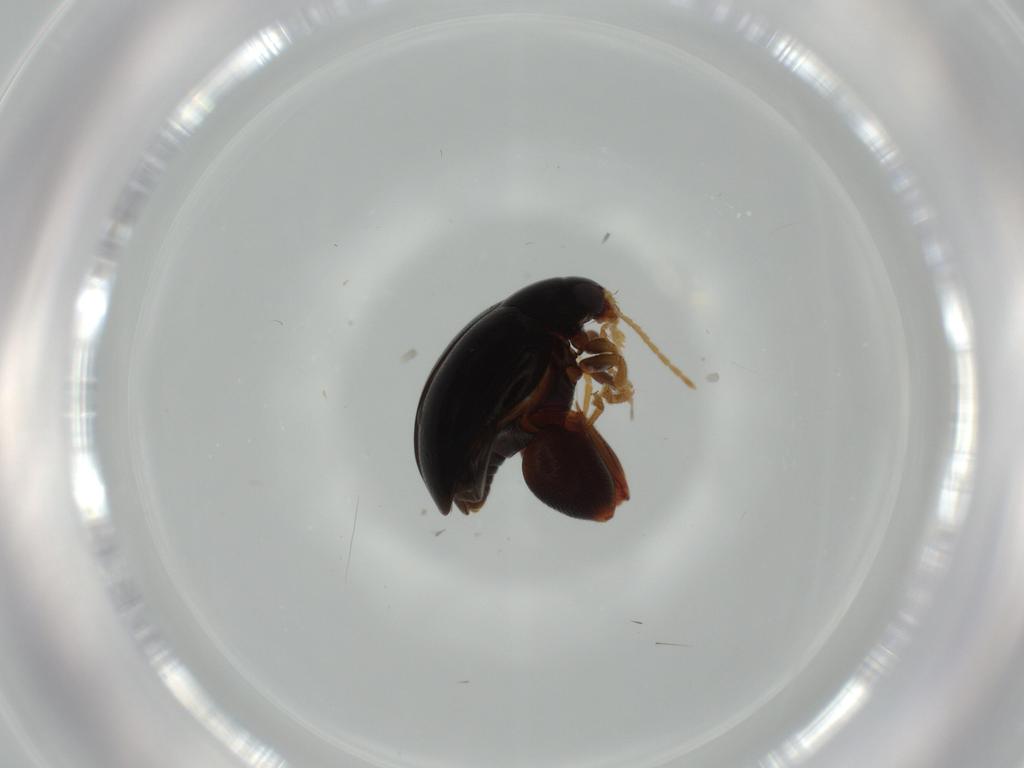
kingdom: Animalia
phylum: Arthropoda
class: Insecta
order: Coleoptera
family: Chrysomelidae
